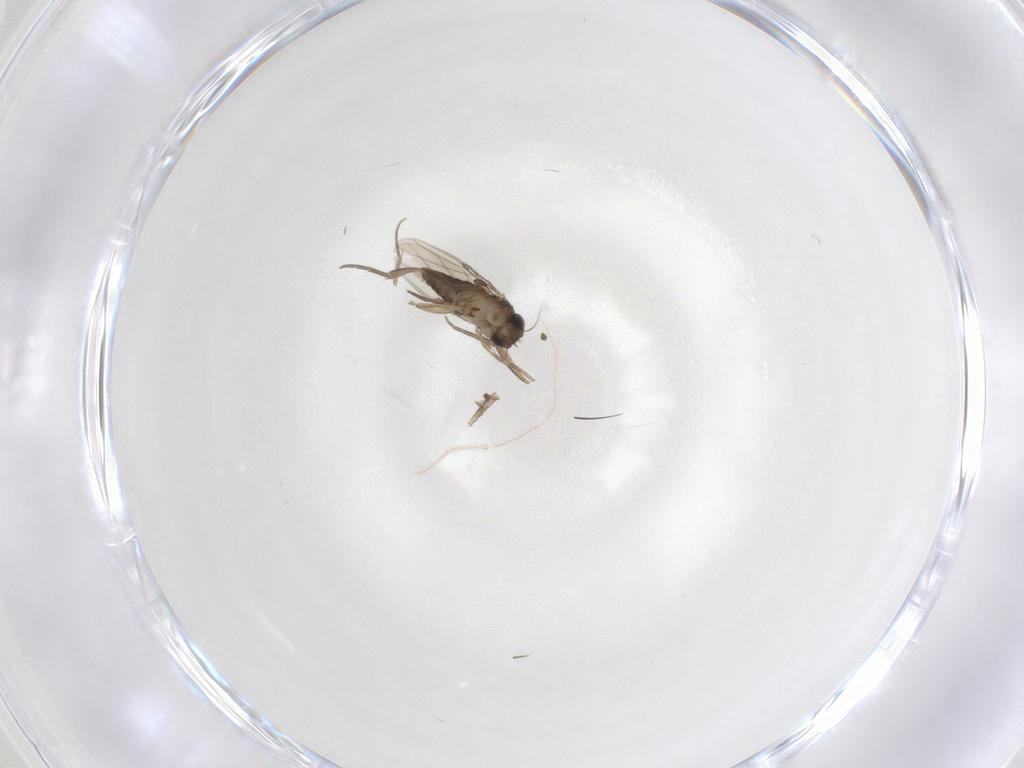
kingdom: Animalia
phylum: Arthropoda
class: Insecta
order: Diptera
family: Phoridae
